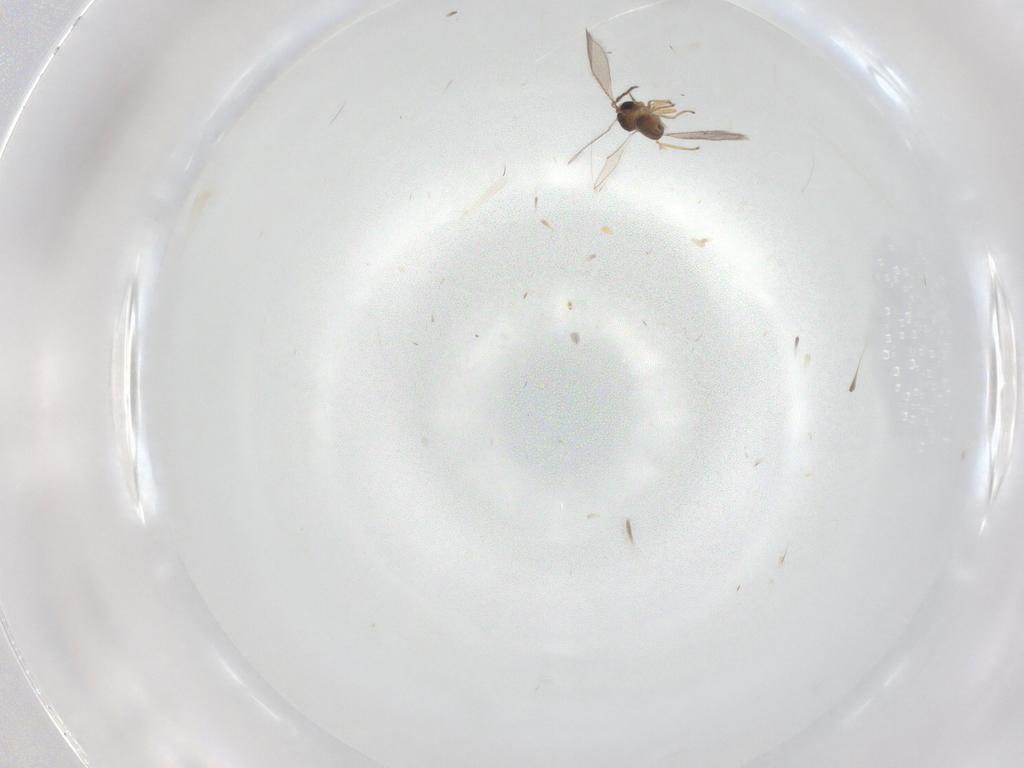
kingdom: Animalia
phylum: Arthropoda
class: Insecta
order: Hymenoptera
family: Eulophidae
